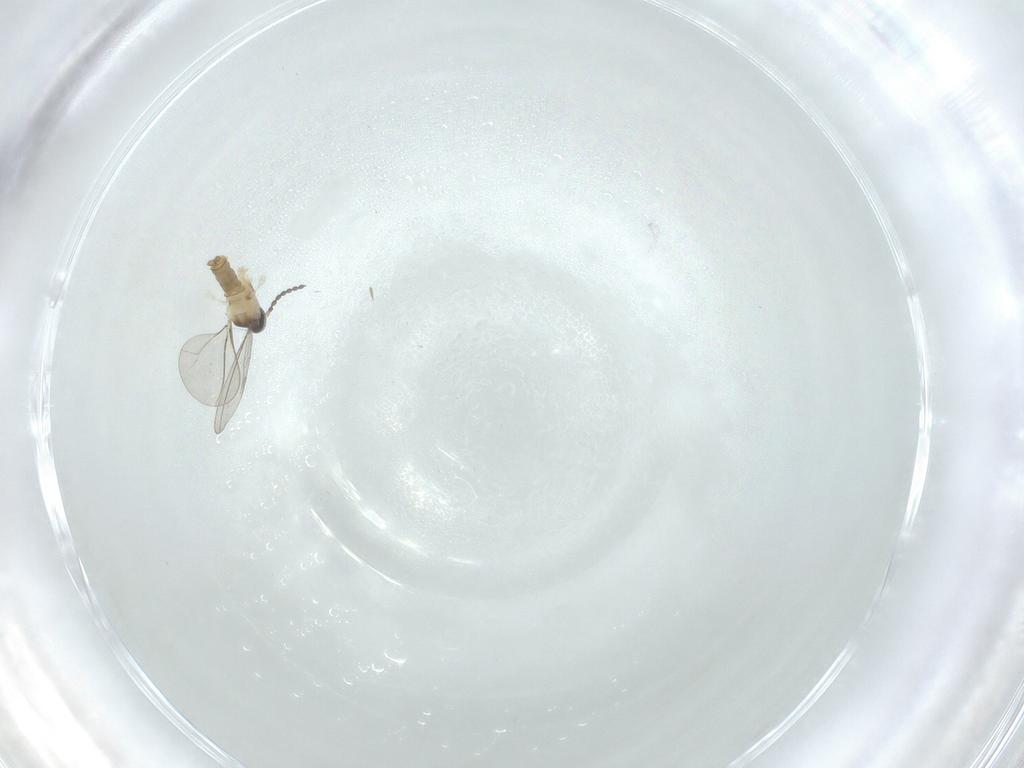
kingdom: Animalia
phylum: Arthropoda
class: Insecta
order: Diptera
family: Cecidomyiidae
